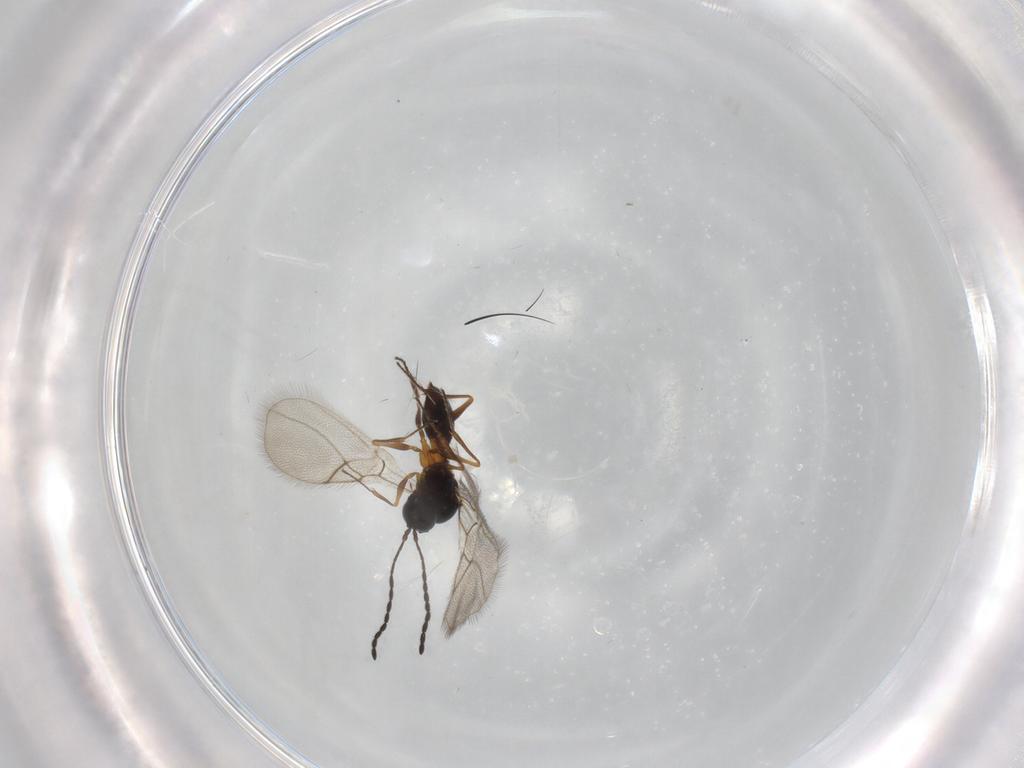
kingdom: Animalia
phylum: Arthropoda
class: Insecta
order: Hymenoptera
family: Figitidae
